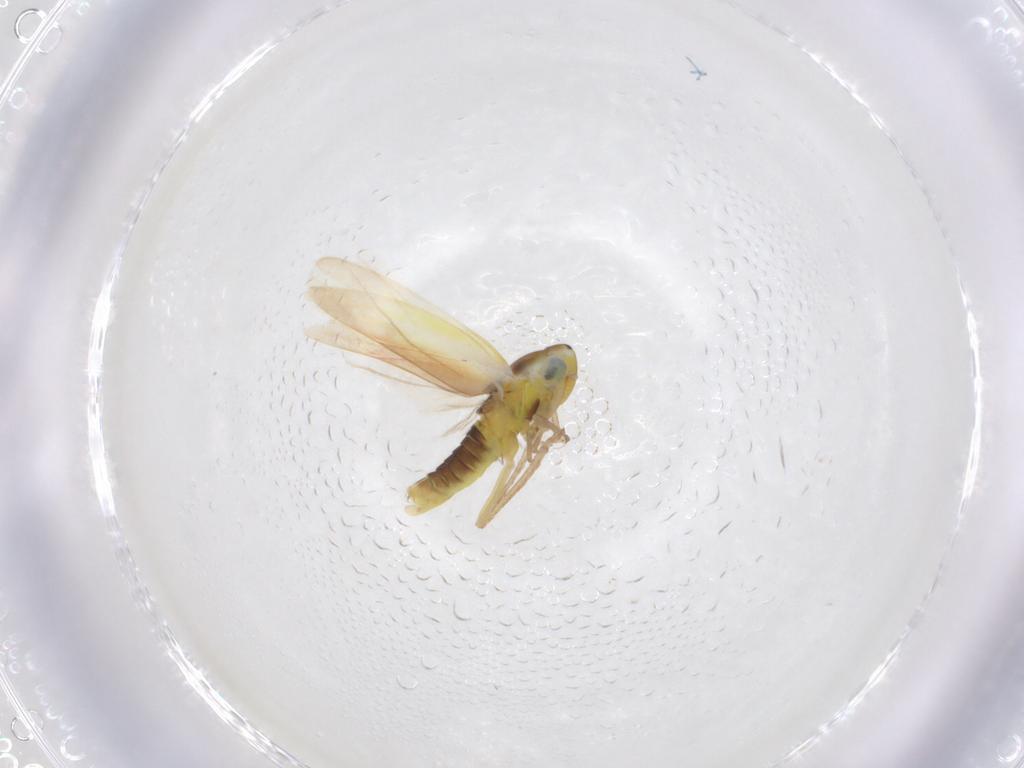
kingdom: Animalia
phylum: Arthropoda
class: Insecta
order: Hemiptera
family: Cicadellidae
